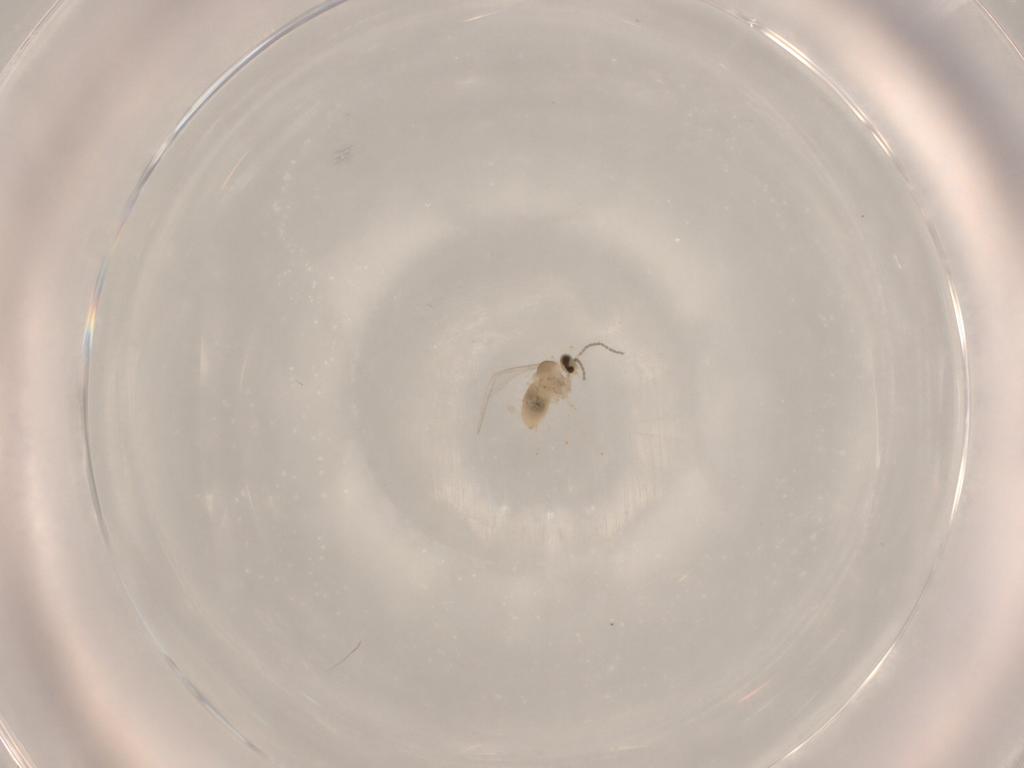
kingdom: Animalia
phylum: Arthropoda
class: Insecta
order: Diptera
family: Cecidomyiidae
